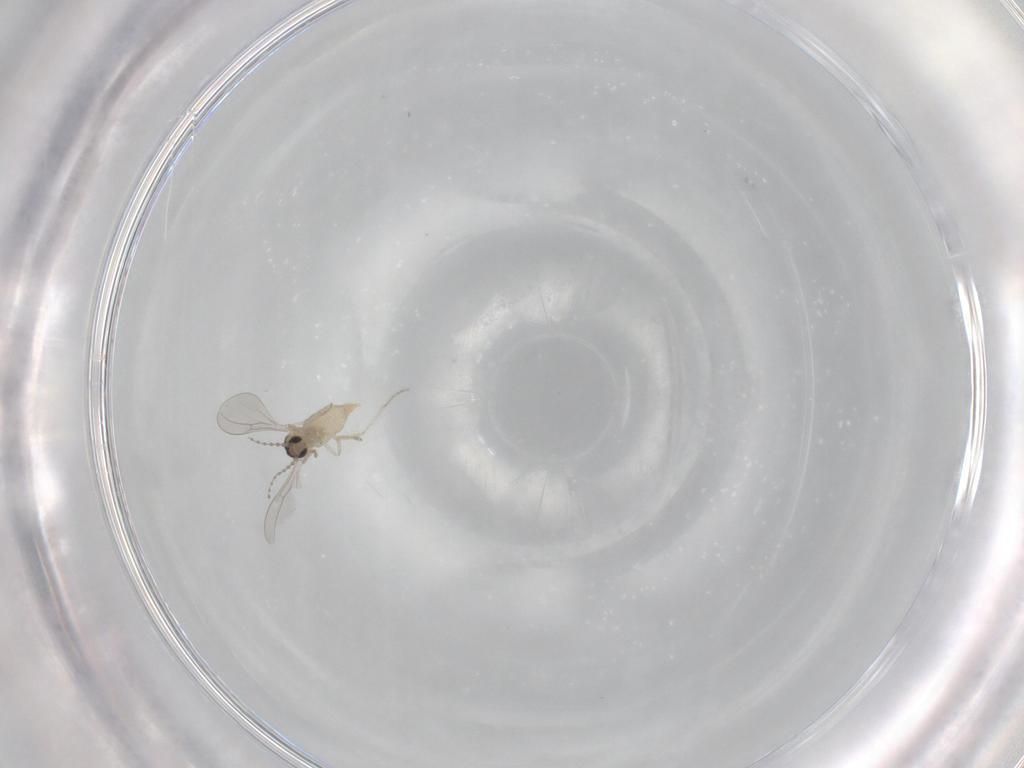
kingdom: Animalia
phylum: Arthropoda
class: Insecta
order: Diptera
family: Cecidomyiidae
